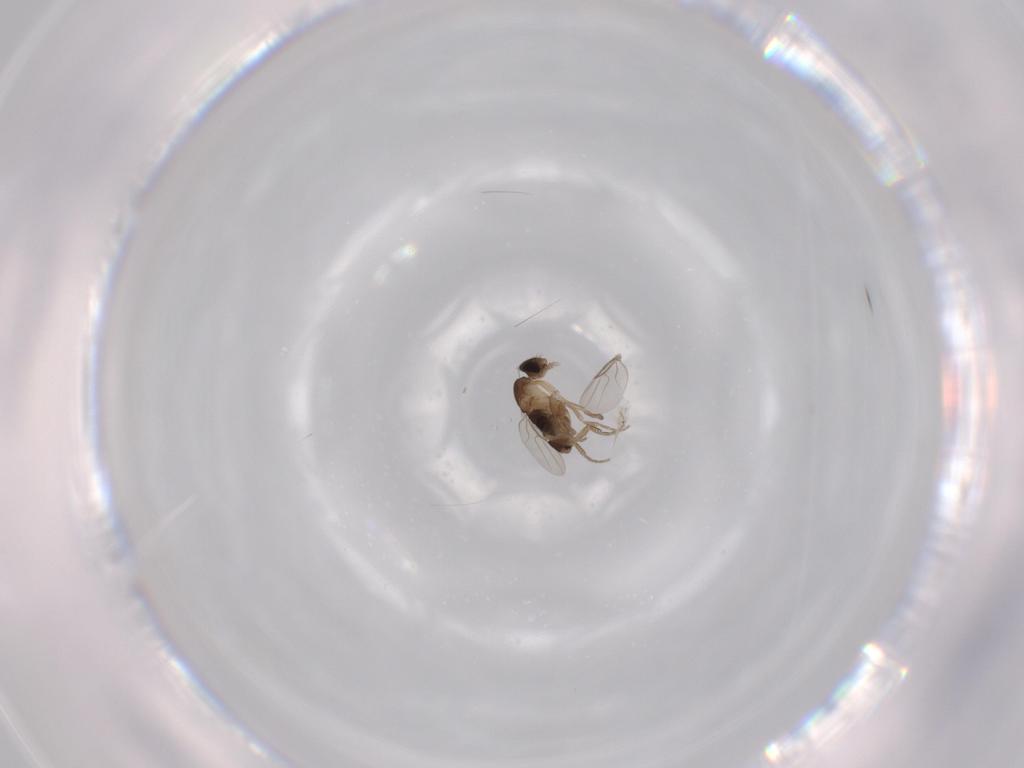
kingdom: Animalia
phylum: Arthropoda
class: Insecta
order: Diptera
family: Phoridae
